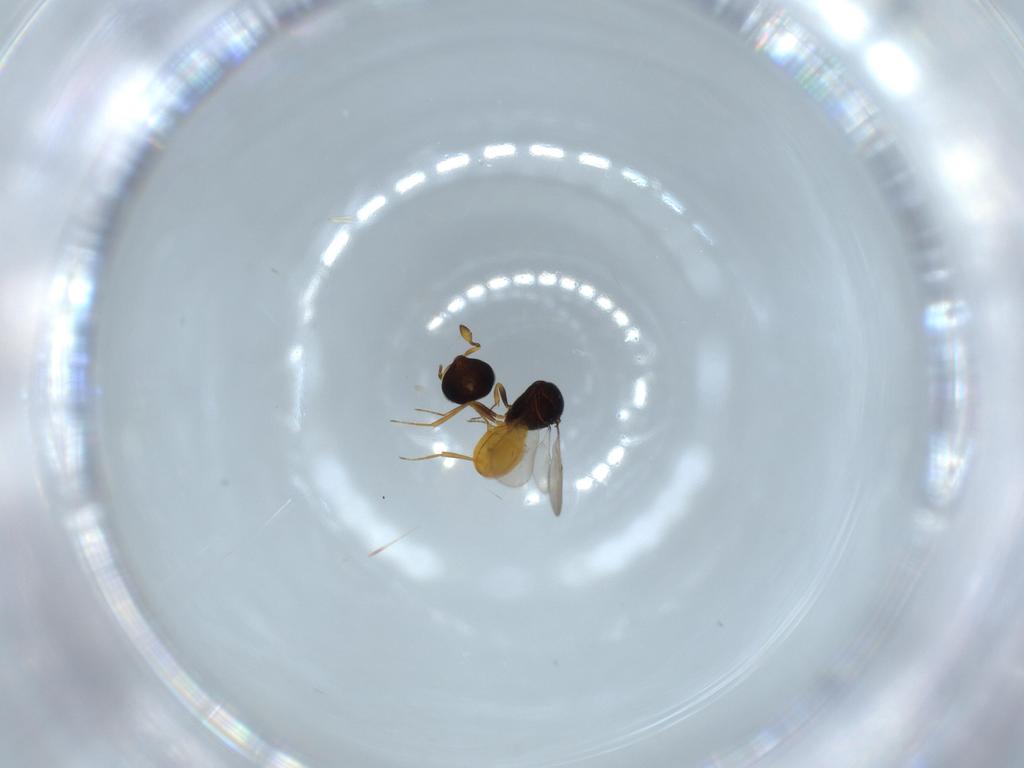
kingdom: Animalia
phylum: Arthropoda
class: Insecta
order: Hymenoptera
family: Scelionidae
